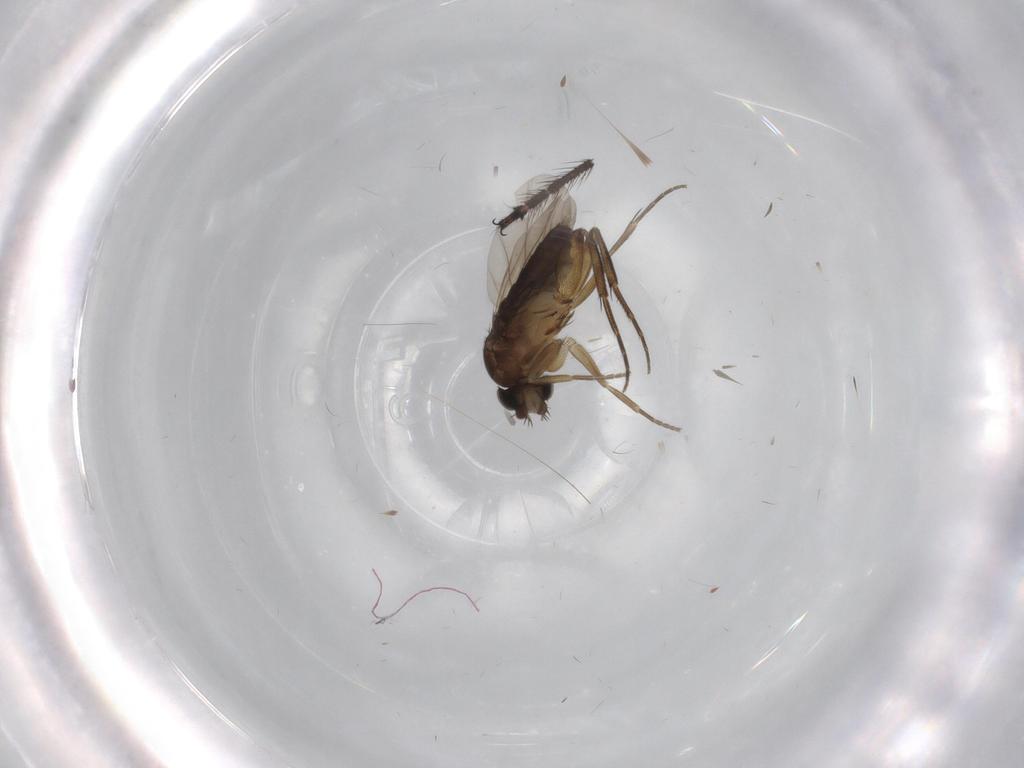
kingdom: Animalia
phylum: Arthropoda
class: Insecta
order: Diptera
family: Phoridae
